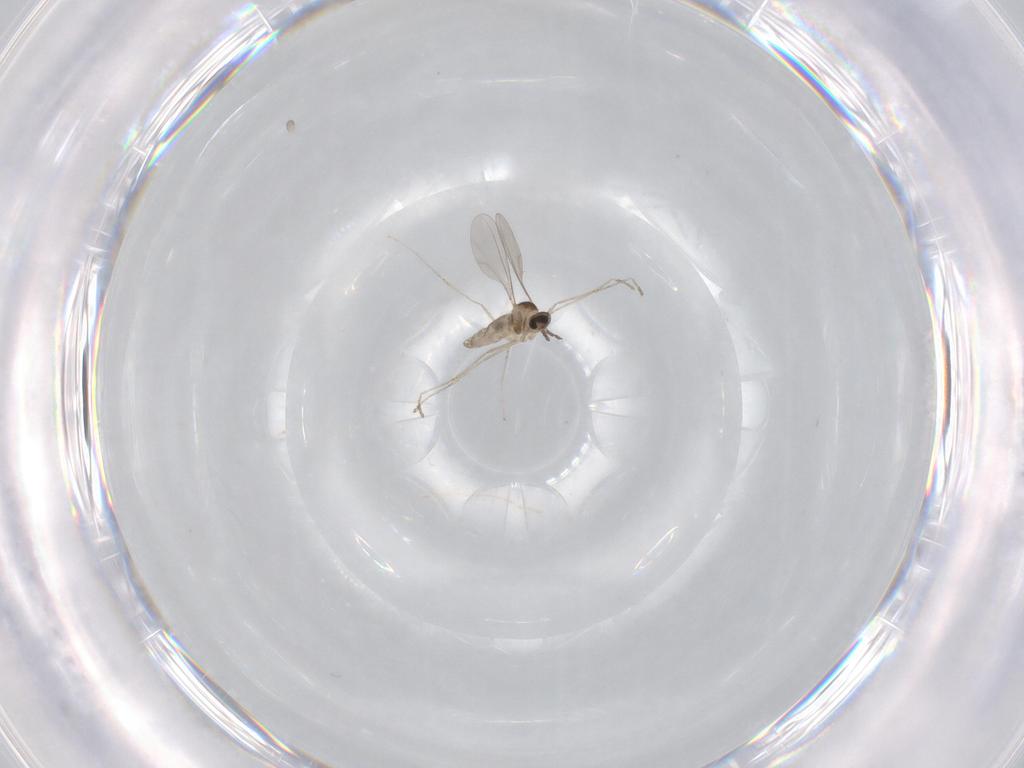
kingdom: Animalia
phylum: Arthropoda
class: Insecta
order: Diptera
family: Cecidomyiidae
